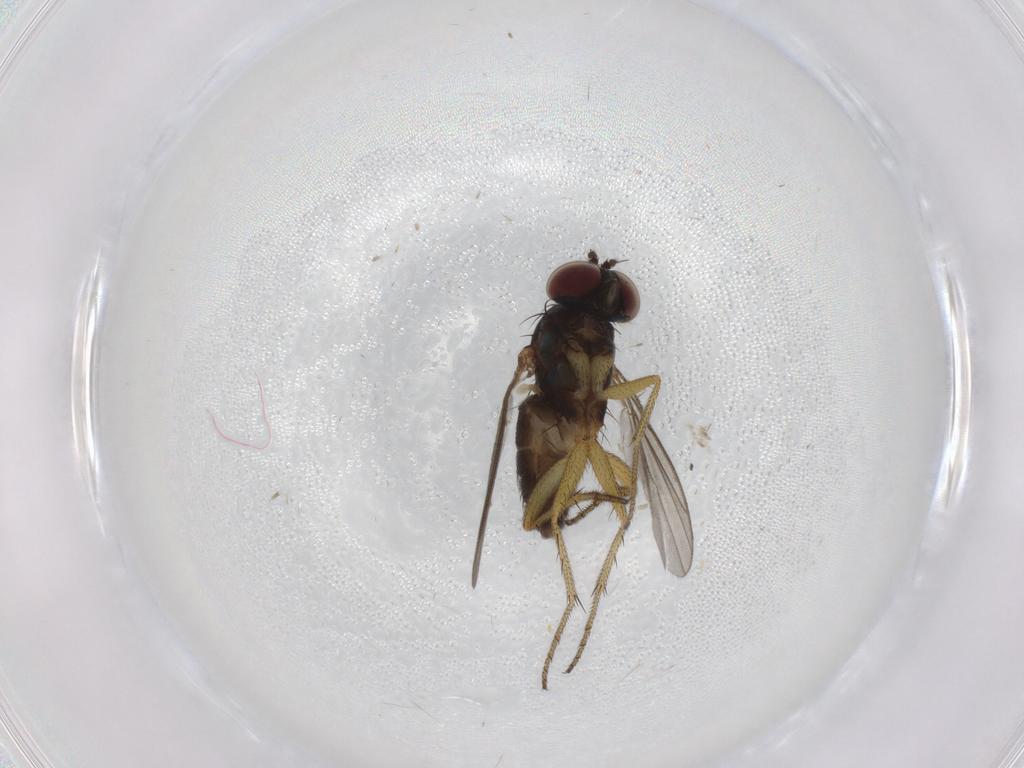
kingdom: Animalia
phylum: Arthropoda
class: Insecta
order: Diptera
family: Dolichopodidae
